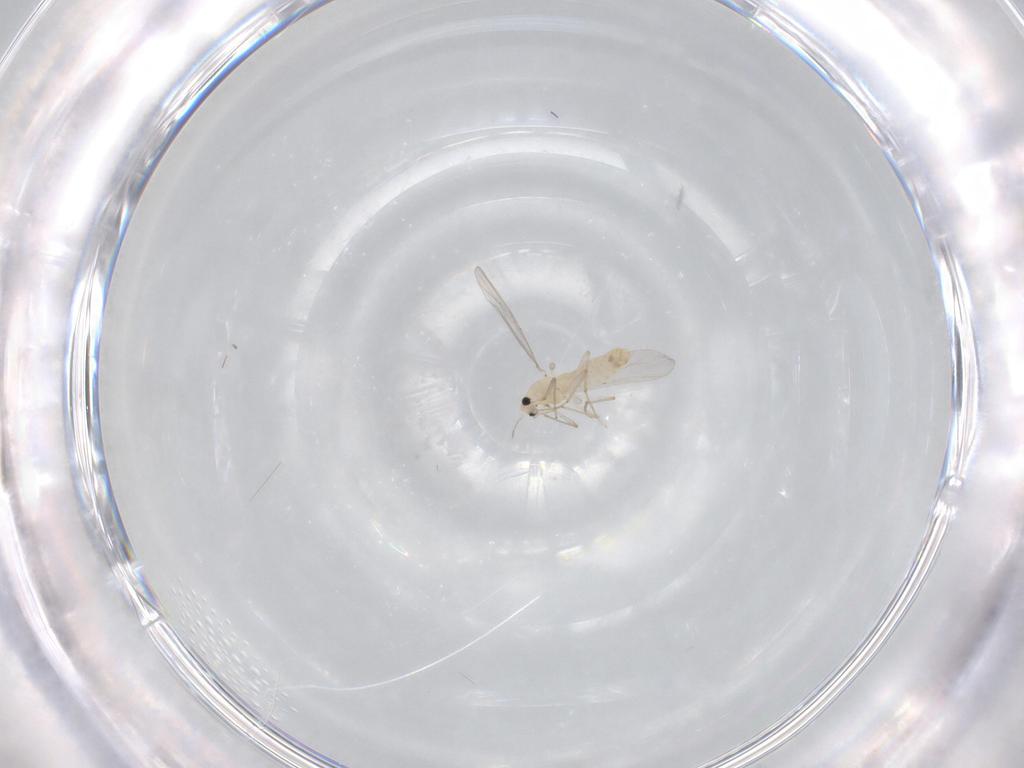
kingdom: Animalia
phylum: Arthropoda
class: Insecta
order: Diptera
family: Chironomidae
